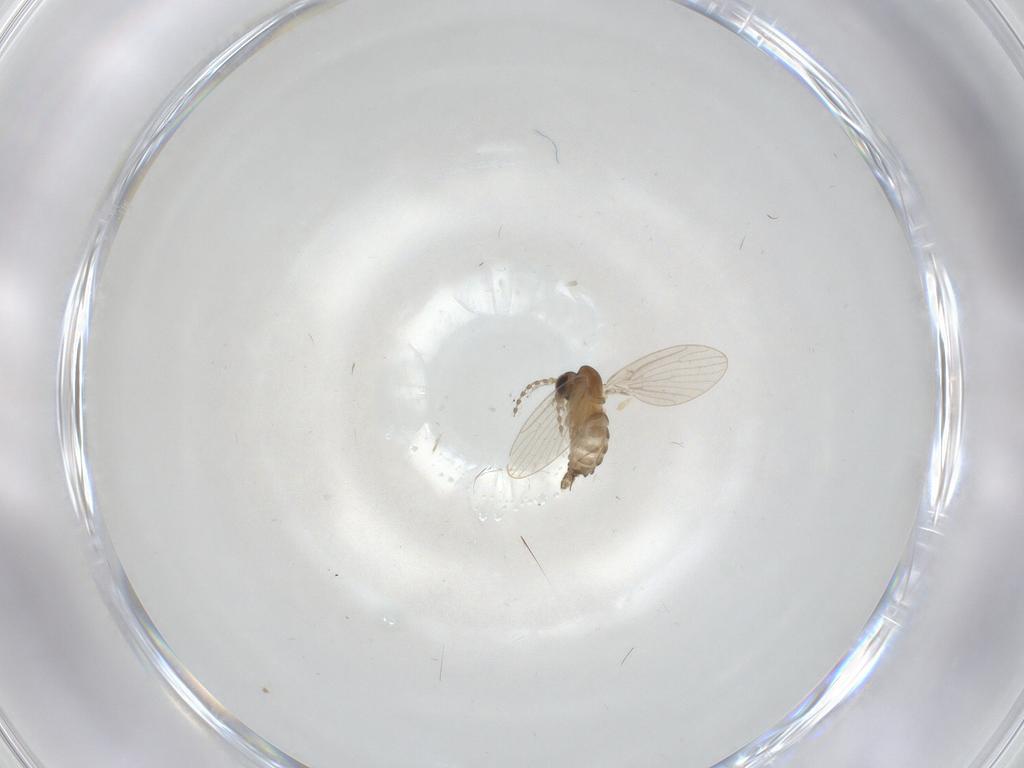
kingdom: Animalia
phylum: Arthropoda
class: Insecta
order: Diptera
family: Psychodidae
